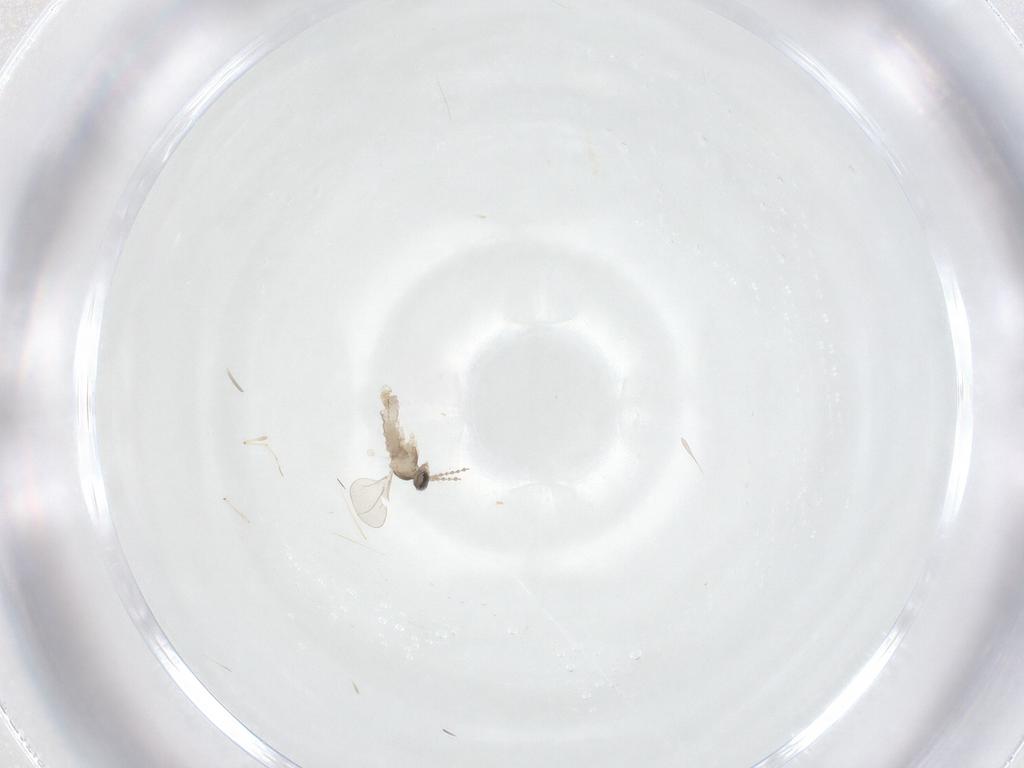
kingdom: Animalia
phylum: Arthropoda
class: Insecta
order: Diptera
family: Chironomidae
